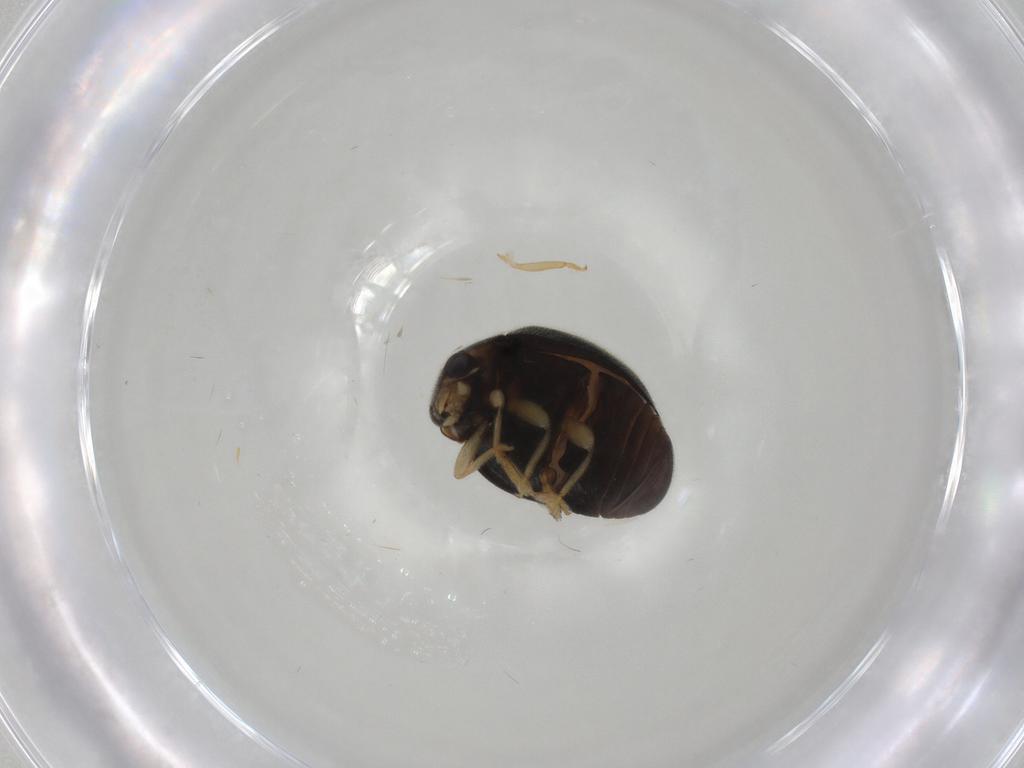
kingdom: Animalia
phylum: Arthropoda
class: Insecta
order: Coleoptera
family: Coccinellidae
